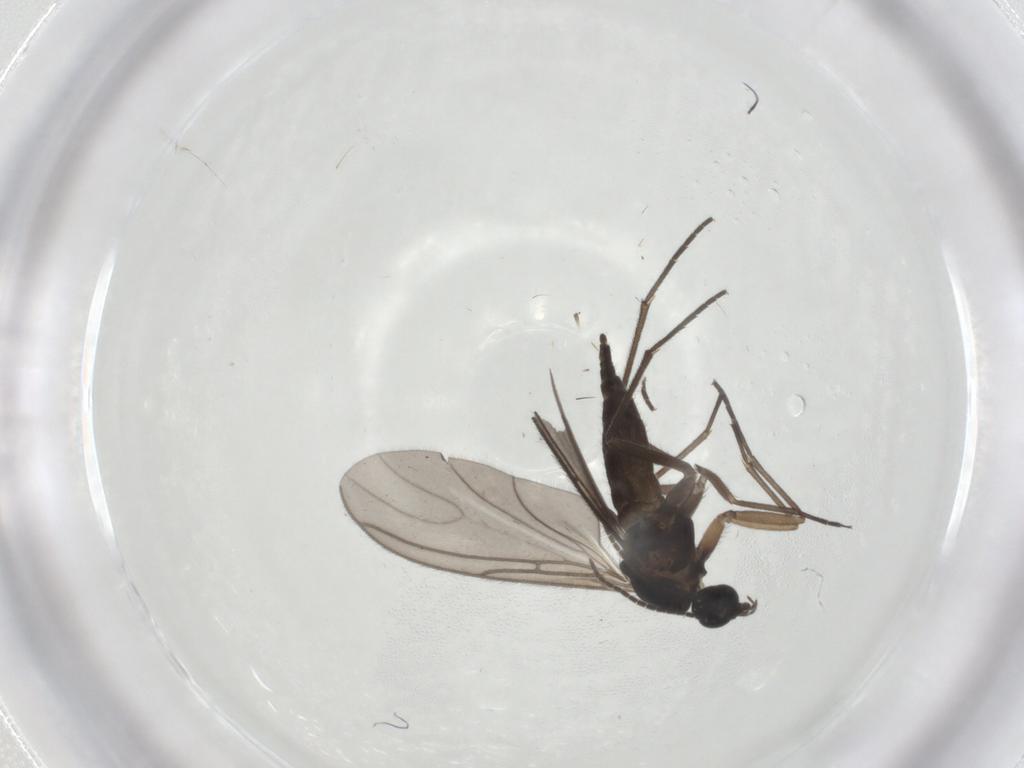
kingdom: Animalia
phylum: Arthropoda
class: Insecta
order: Diptera
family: Sciaridae
